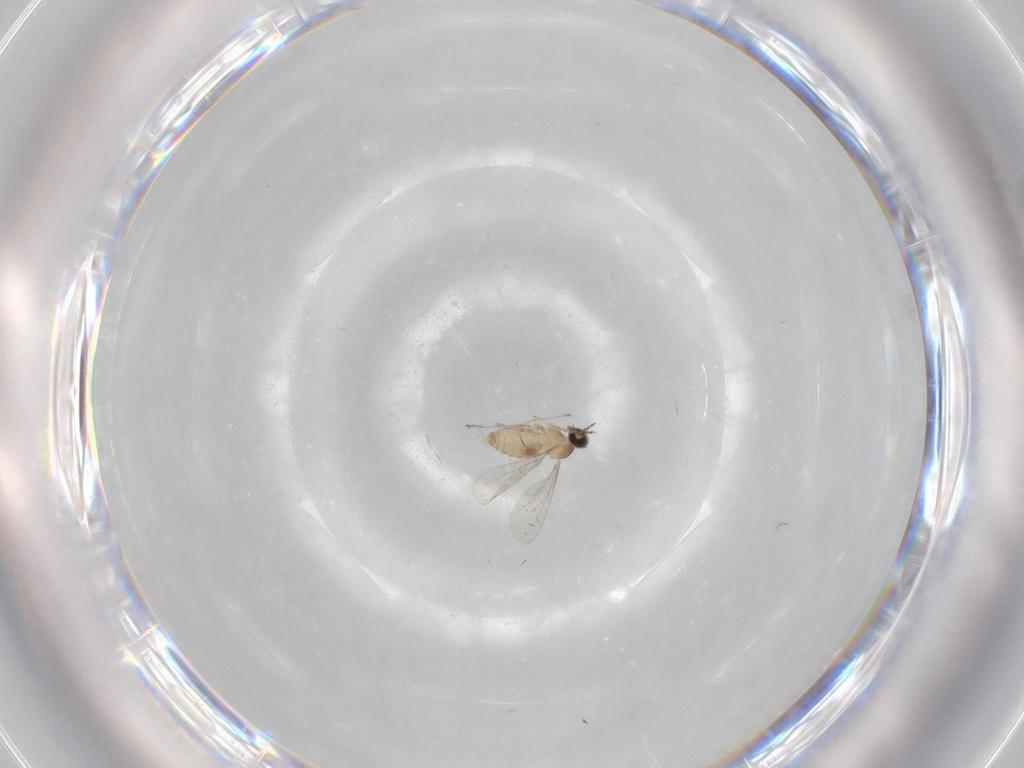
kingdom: Animalia
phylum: Arthropoda
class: Insecta
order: Diptera
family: Cecidomyiidae
